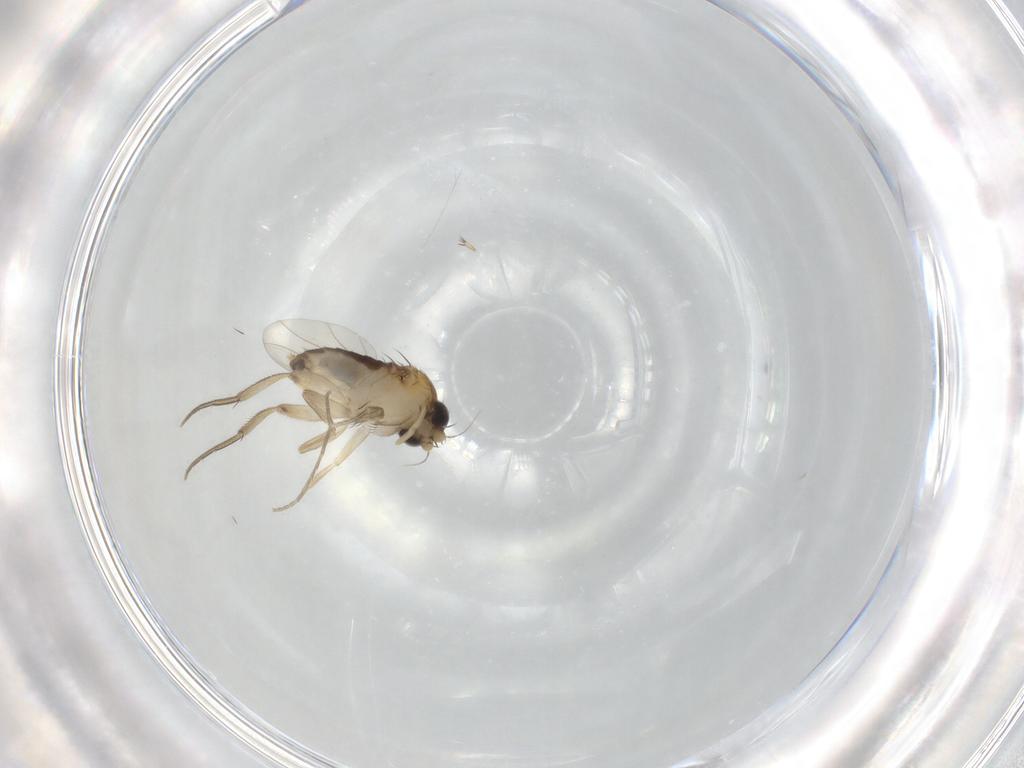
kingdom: Animalia
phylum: Arthropoda
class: Insecta
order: Diptera
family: Phoridae
